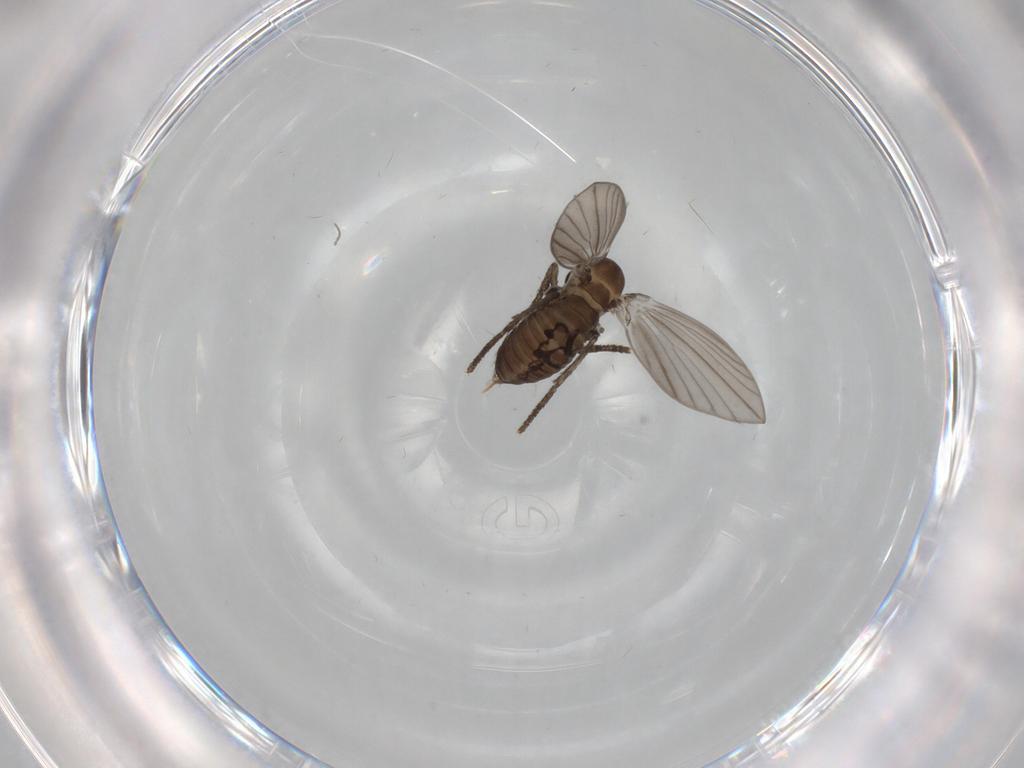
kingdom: Animalia
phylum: Arthropoda
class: Insecta
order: Diptera
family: Psychodidae
